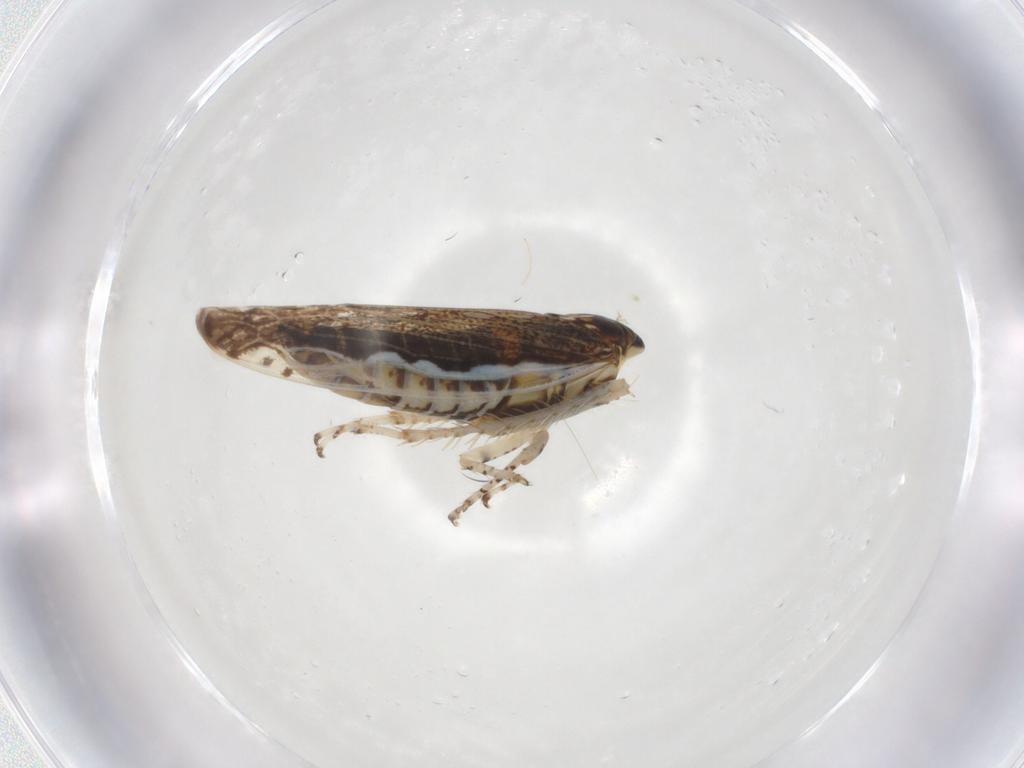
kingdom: Animalia
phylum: Arthropoda
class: Insecta
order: Hemiptera
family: Cicadellidae
